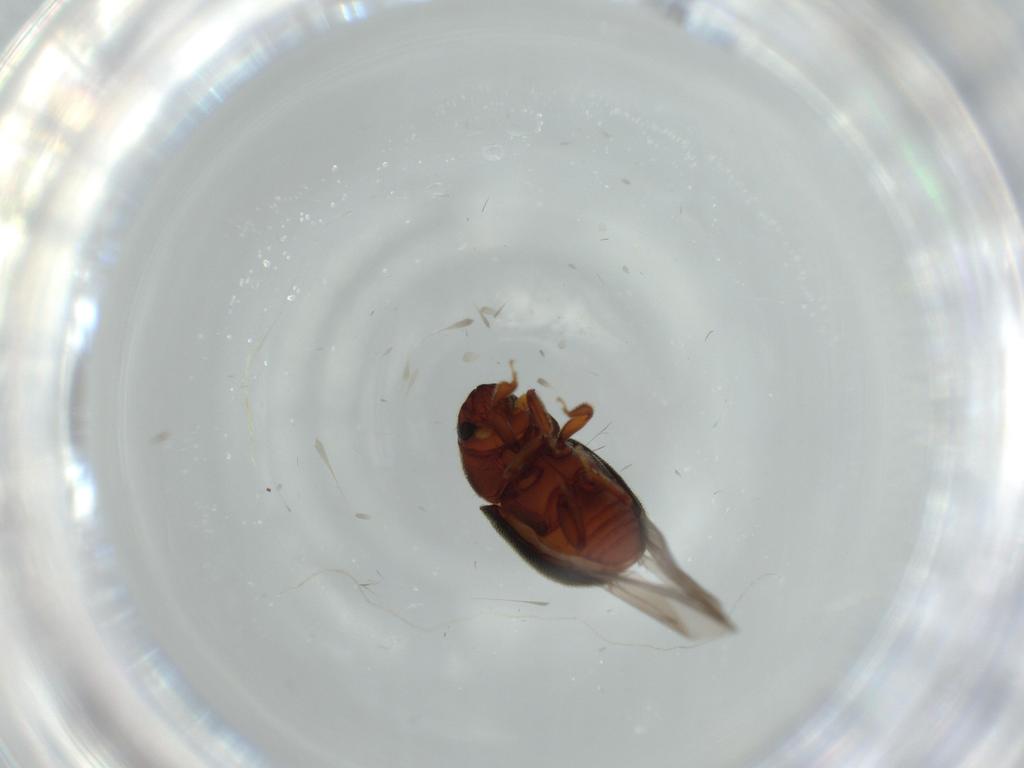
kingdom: Animalia
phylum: Arthropoda
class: Insecta
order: Coleoptera
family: Curculionidae
